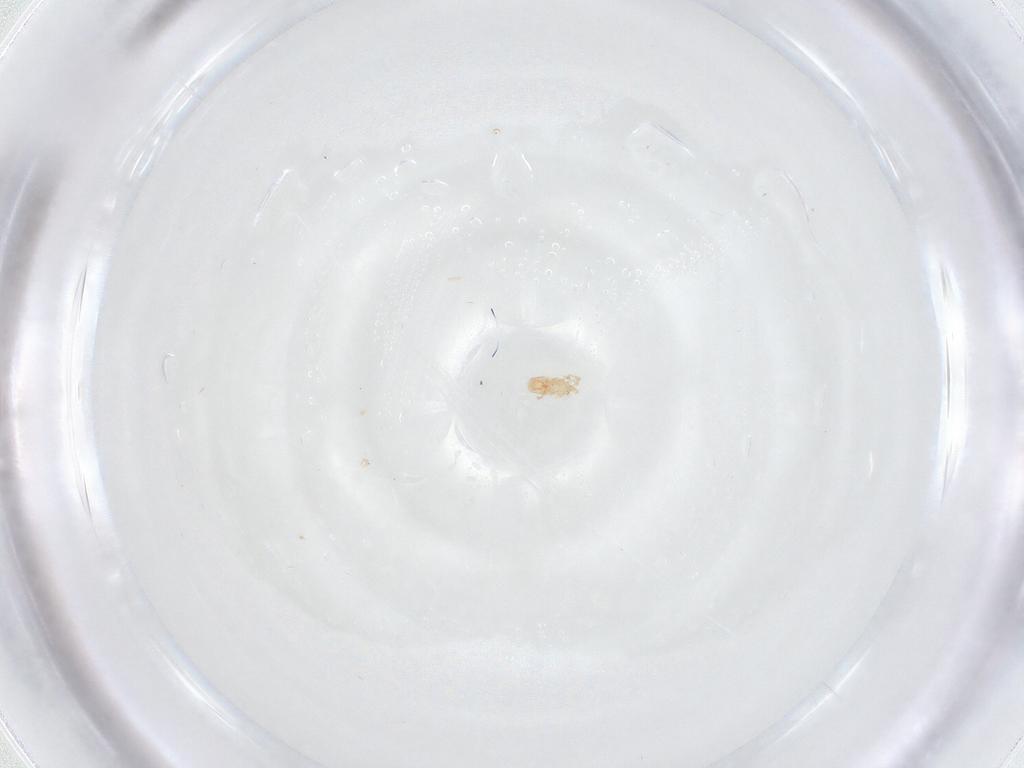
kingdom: Animalia
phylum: Arthropoda
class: Arachnida
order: Mesostigmata
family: Ascidae
